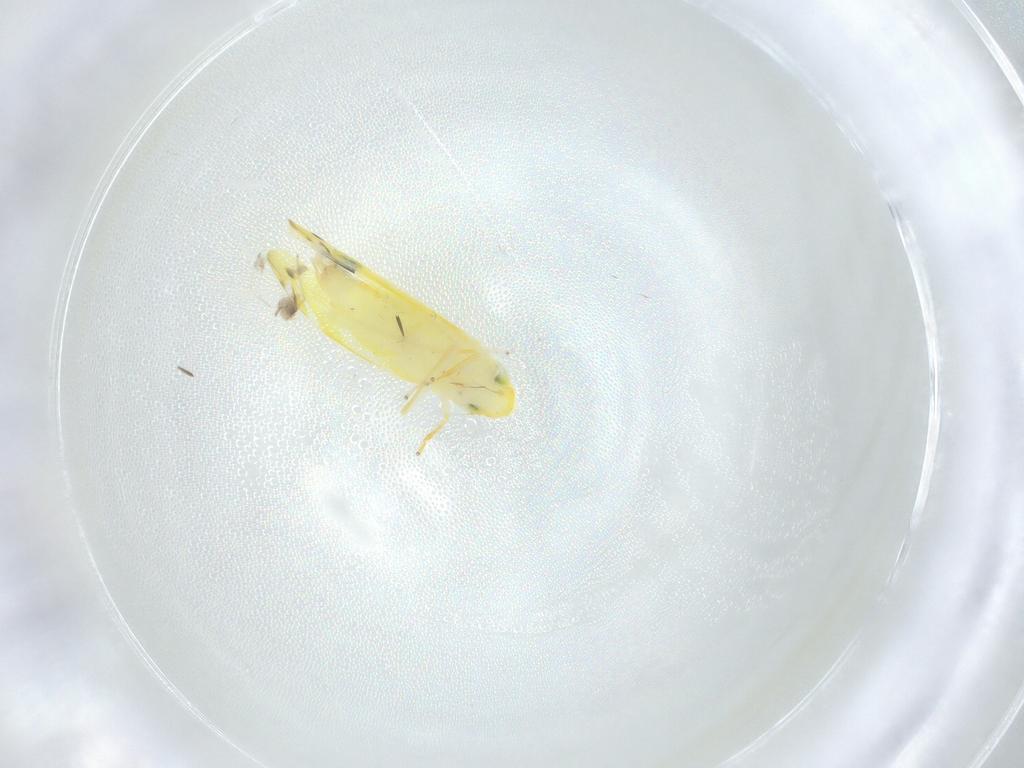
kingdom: Animalia
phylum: Arthropoda
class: Insecta
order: Hemiptera
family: Cicadellidae
